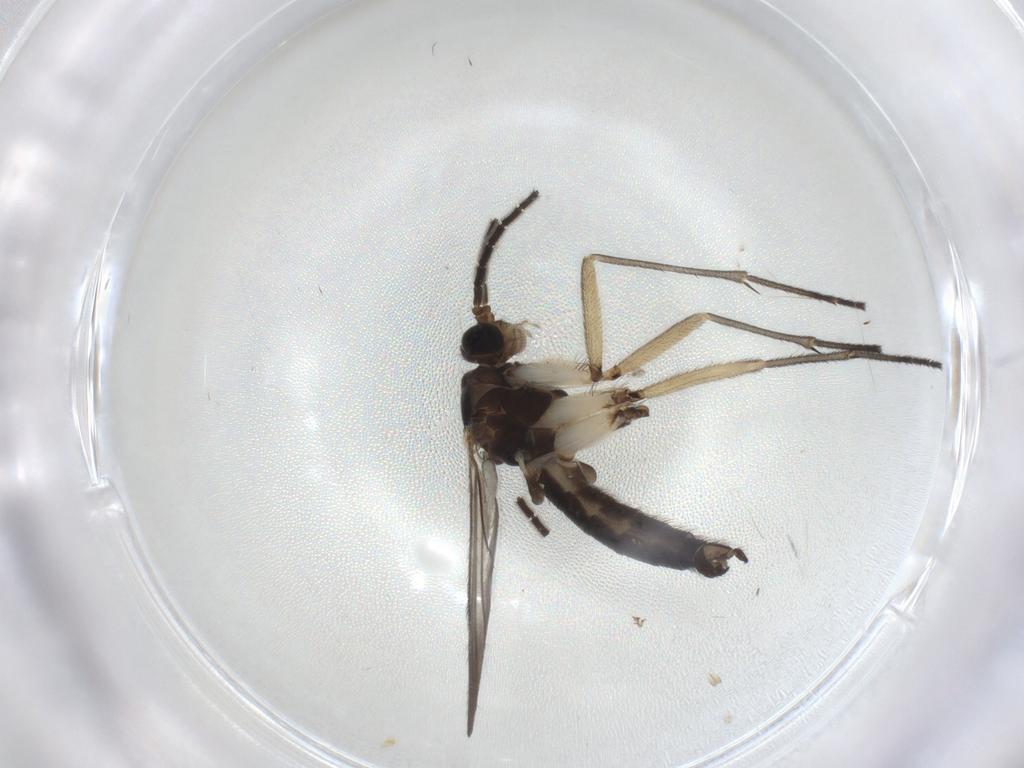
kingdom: Animalia
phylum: Arthropoda
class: Insecta
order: Diptera
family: Sciaridae
